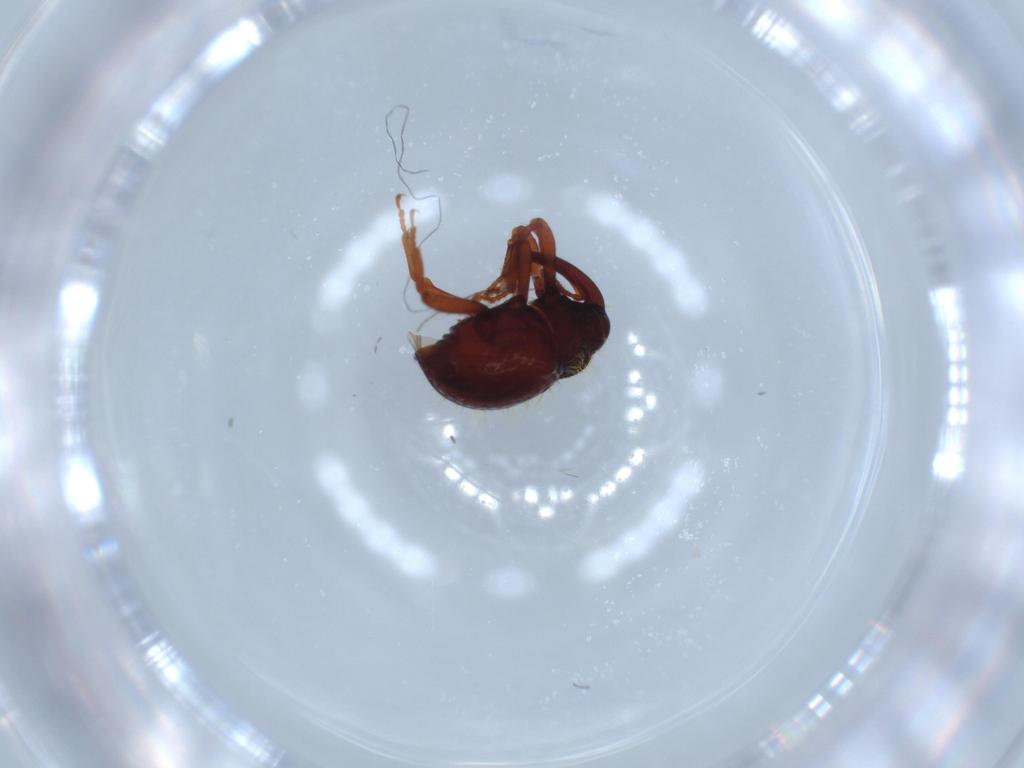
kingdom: Animalia
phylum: Arthropoda
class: Insecta
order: Coleoptera
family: Curculionidae
